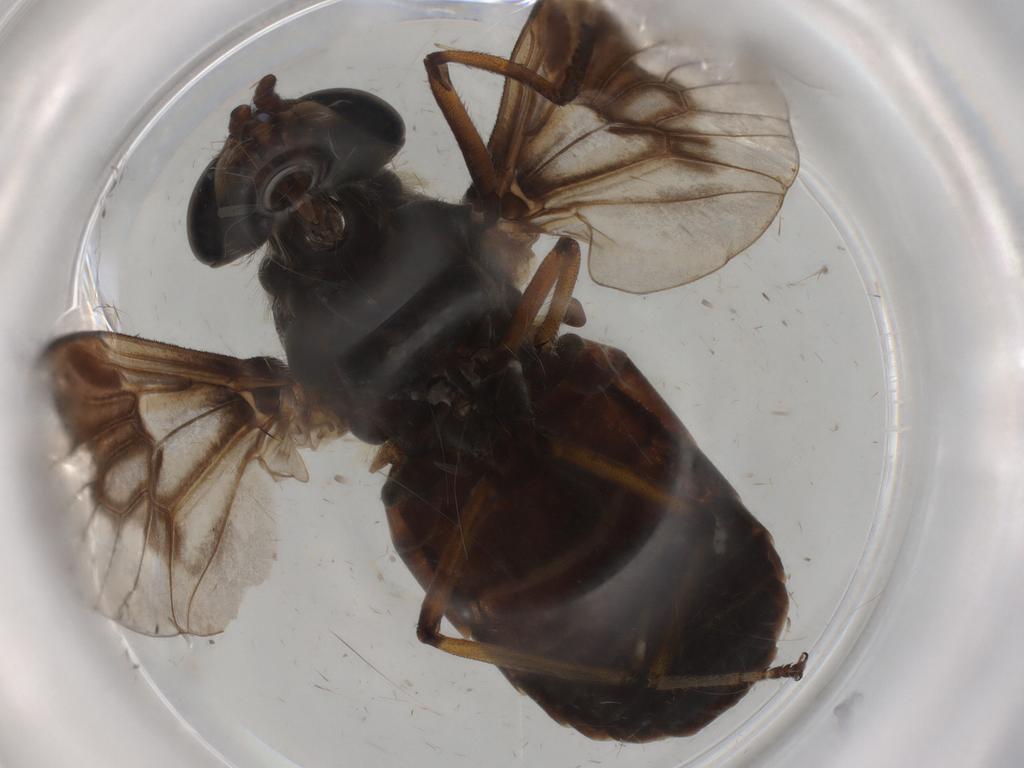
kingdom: Animalia
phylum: Arthropoda
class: Insecta
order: Diptera
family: Tabanidae
